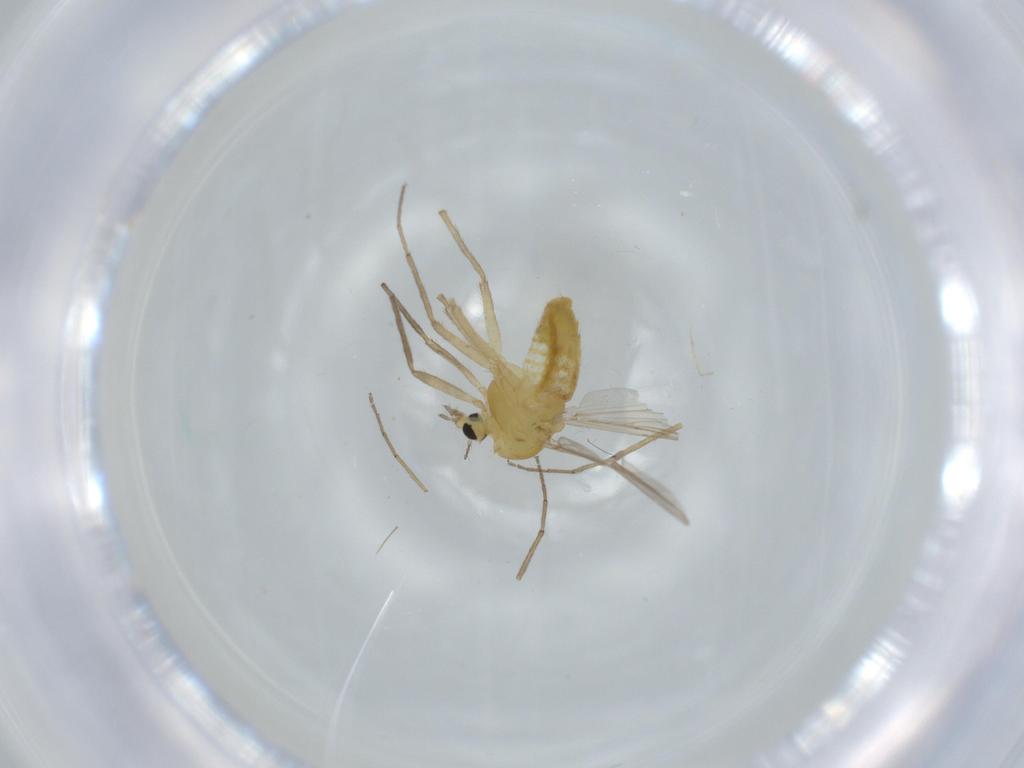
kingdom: Animalia
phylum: Arthropoda
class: Insecta
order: Diptera
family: Chironomidae
